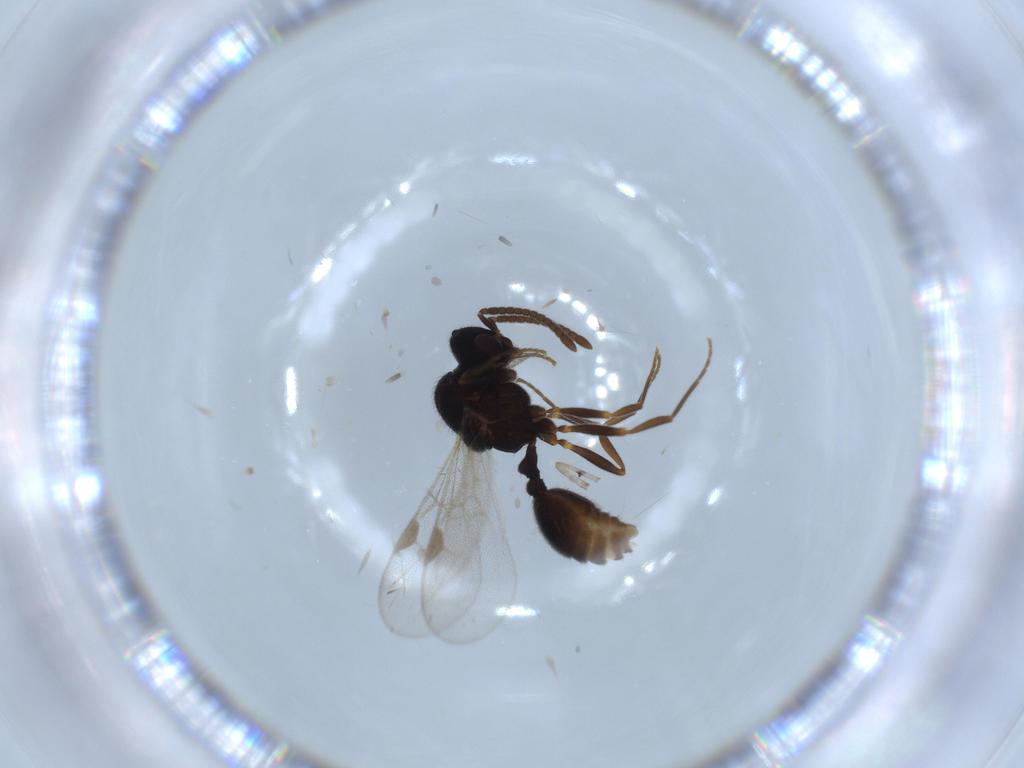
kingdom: Animalia
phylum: Arthropoda
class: Insecta
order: Hymenoptera
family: Formicidae
